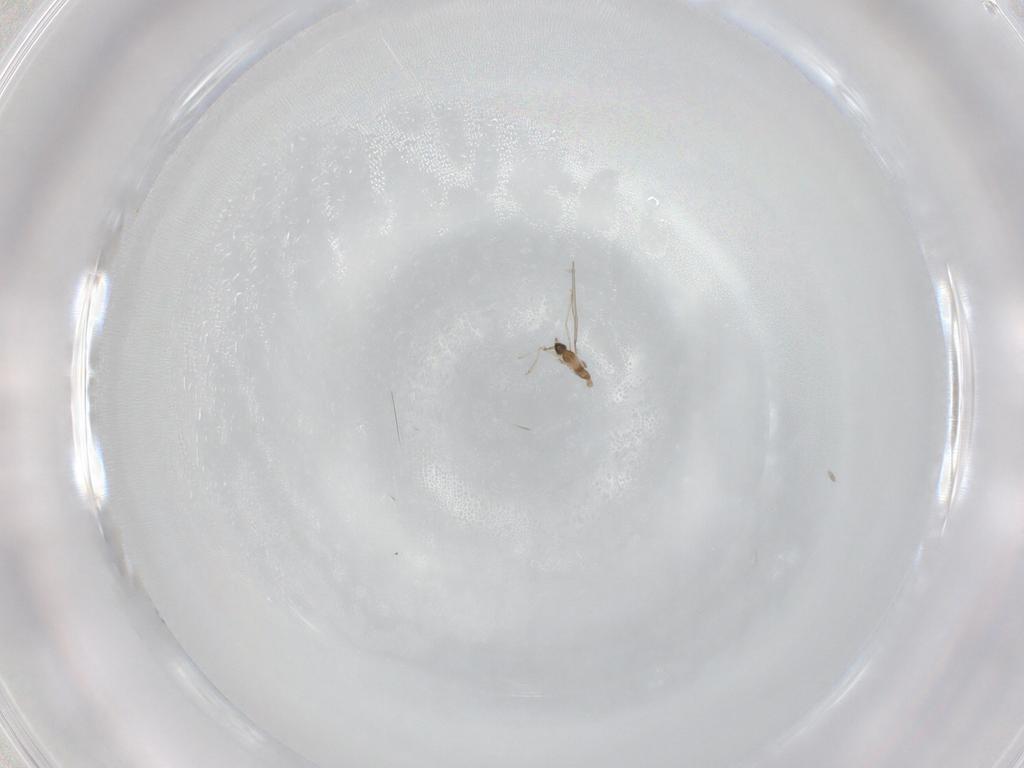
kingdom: Animalia
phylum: Arthropoda
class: Insecta
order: Diptera
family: Cecidomyiidae
